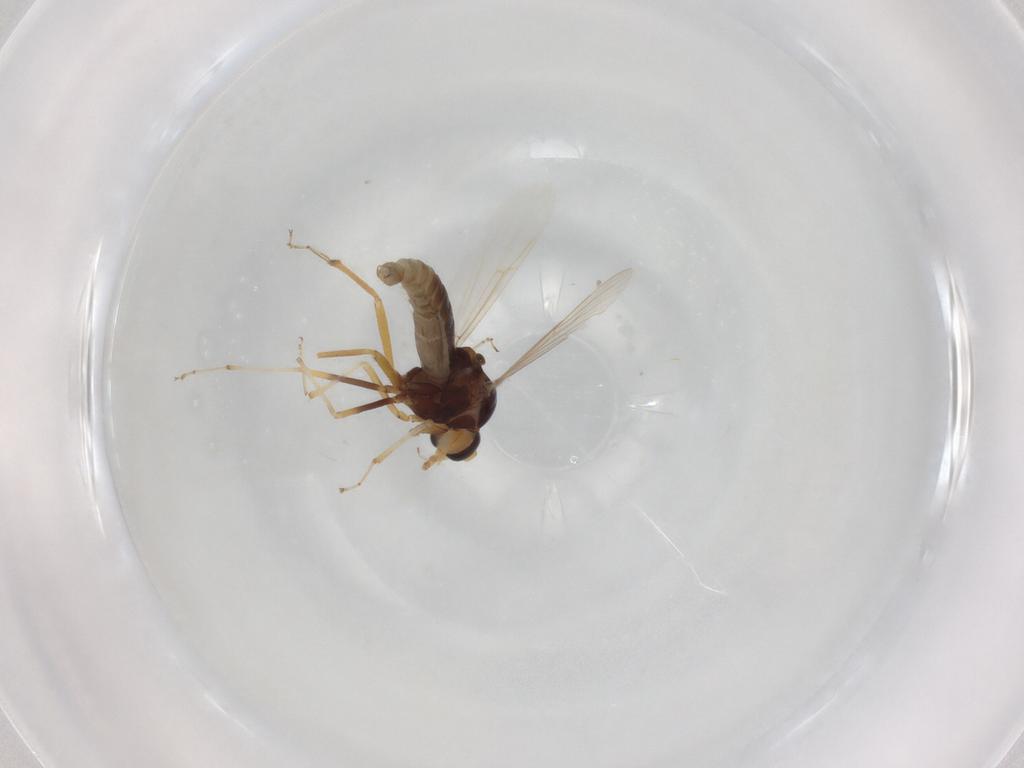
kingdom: Animalia
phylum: Arthropoda
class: Insecta
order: Diptera
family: Ceratopogonidae
